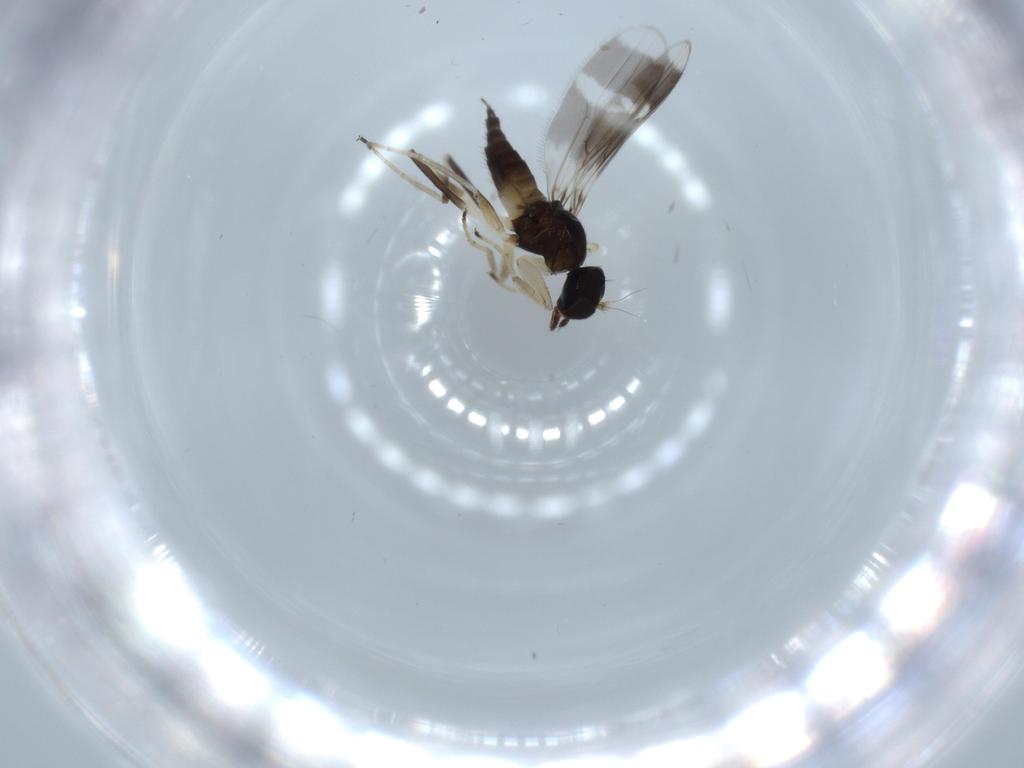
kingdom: Animalia
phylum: Arthropoda
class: Insecta
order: Diptera
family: Hybotidae
